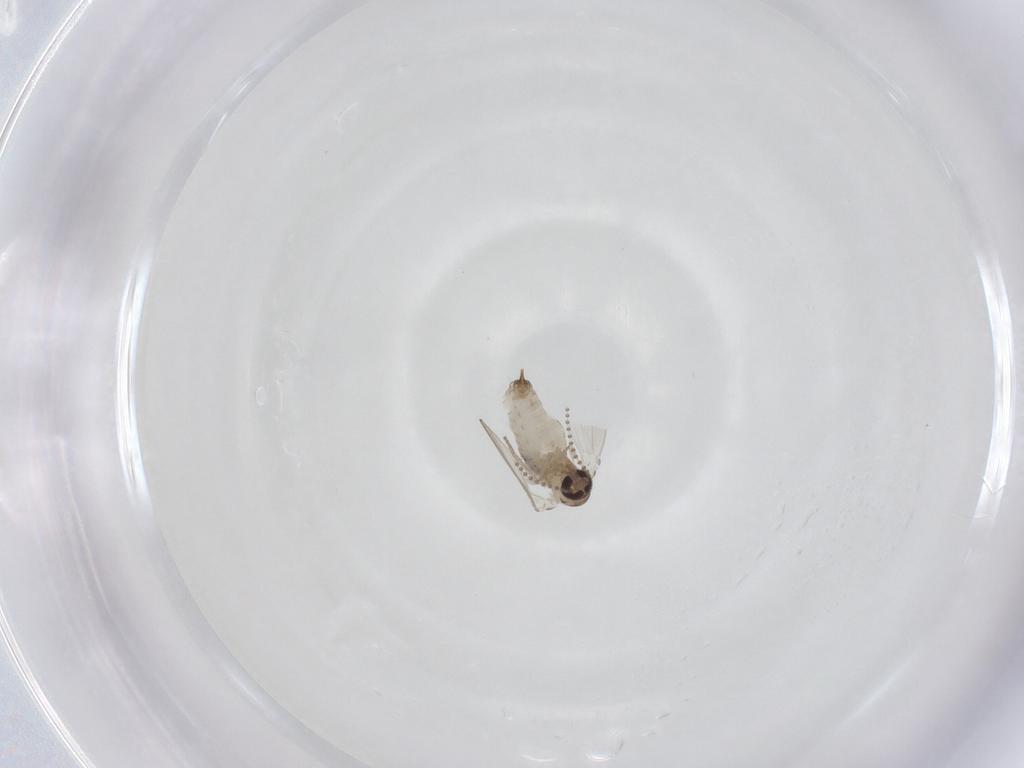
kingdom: Animalia
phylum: Arthropoda
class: Insecta
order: Diptera
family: Psychodidae
